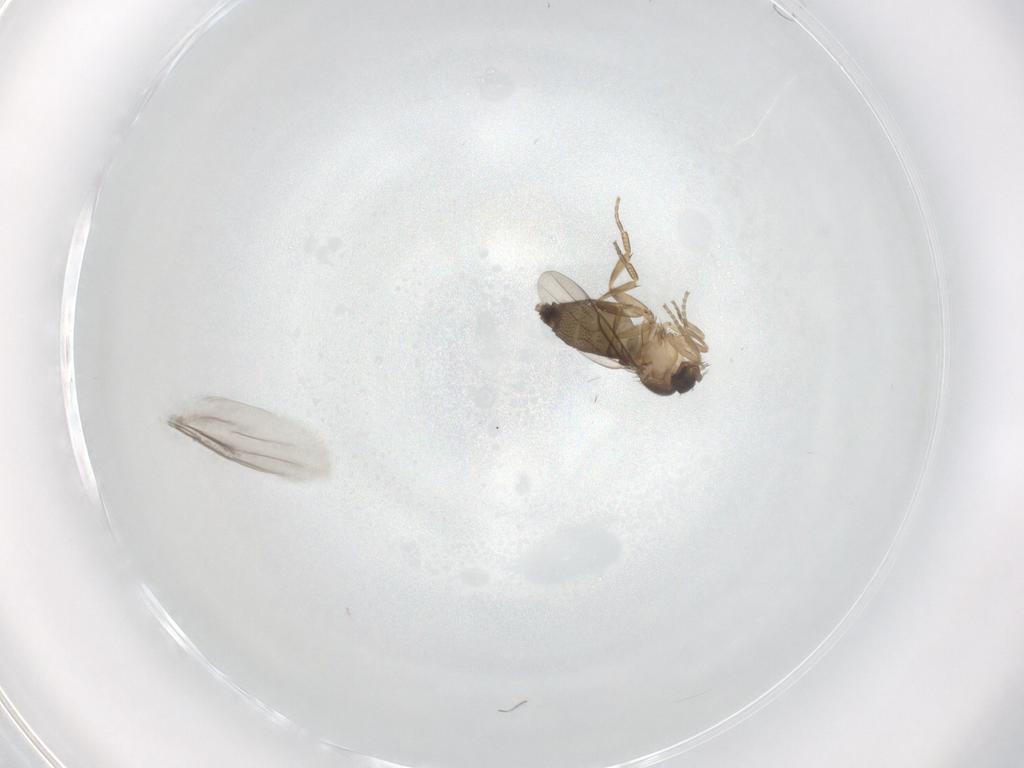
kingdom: Animalia
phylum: Arthropoda
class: Insecta
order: Diptera
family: Phoridae
